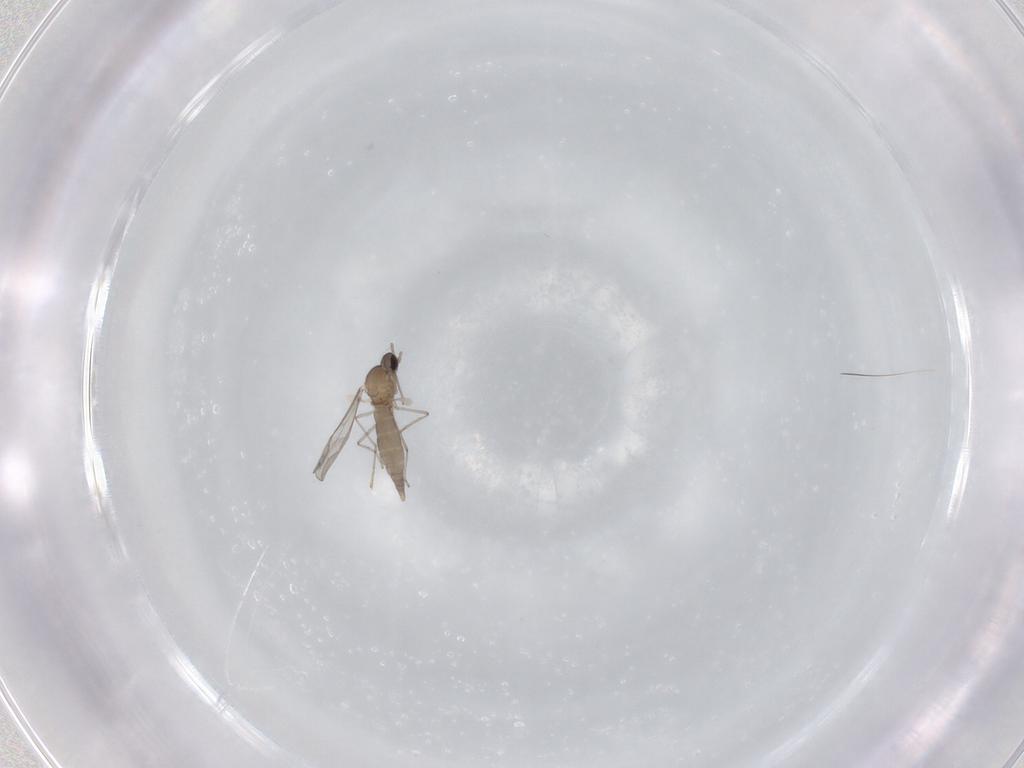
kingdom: Animalia
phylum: Arthropoda
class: Insecta
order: Diptera
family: Cecidomyiidae
